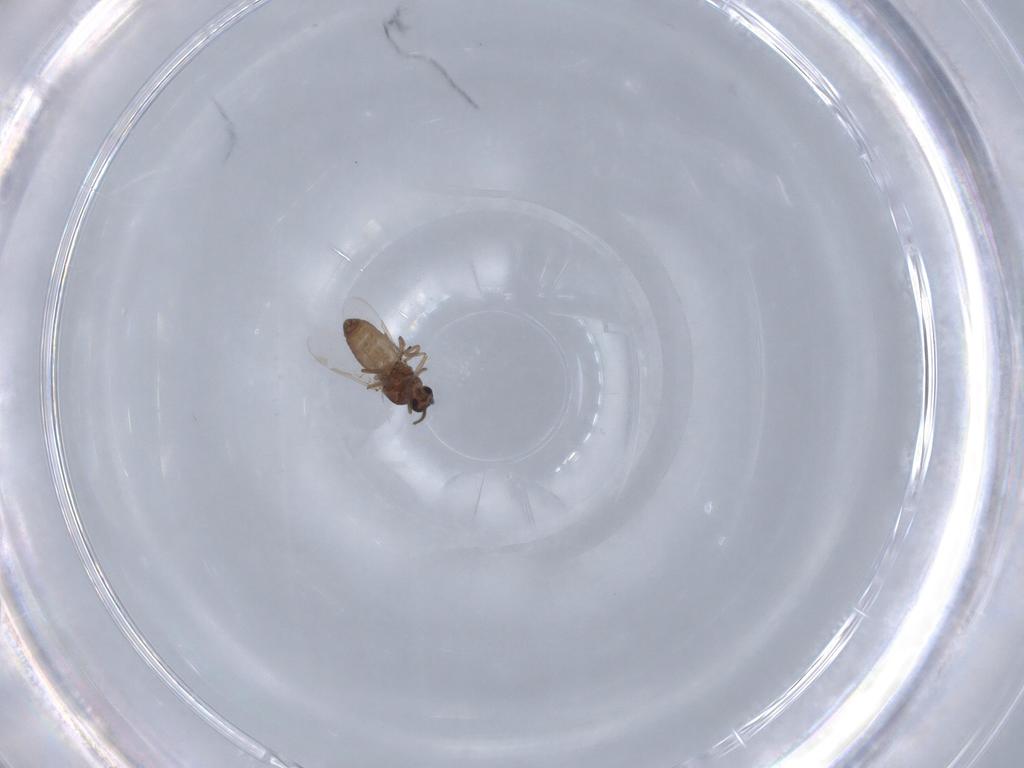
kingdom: Animalia
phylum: Arthropoda
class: Insecta
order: Diptera
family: Ceratopogonidae
